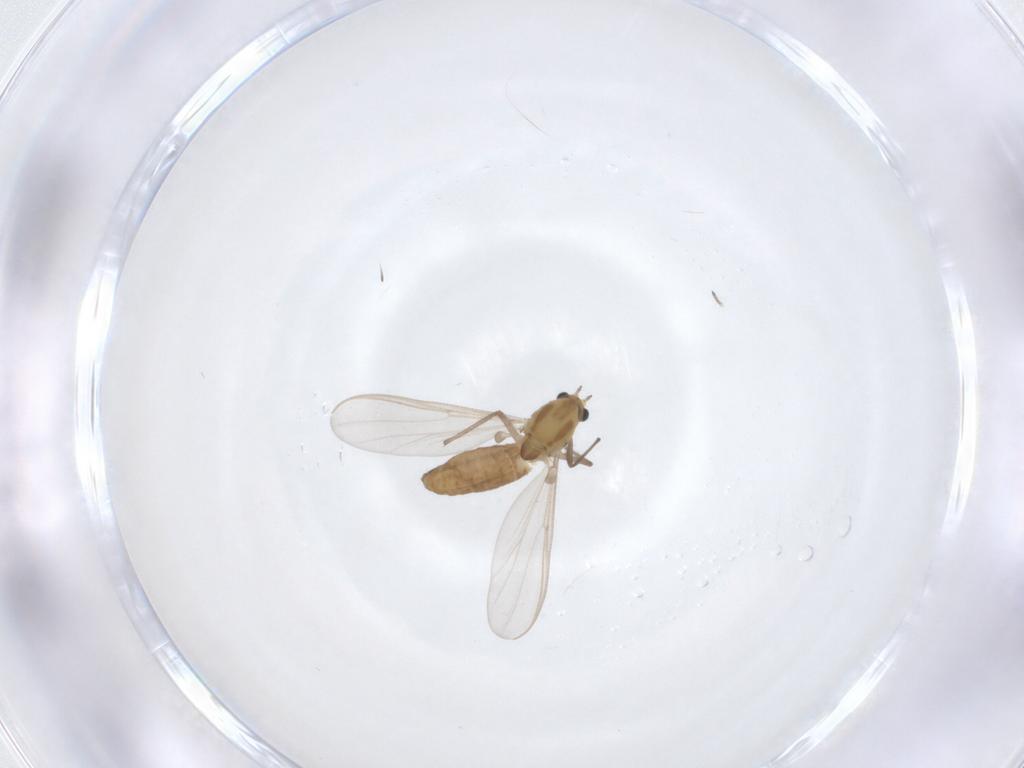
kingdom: Animalia
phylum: Arthropoda
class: Insecta
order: Diptera
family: Chironomidae
